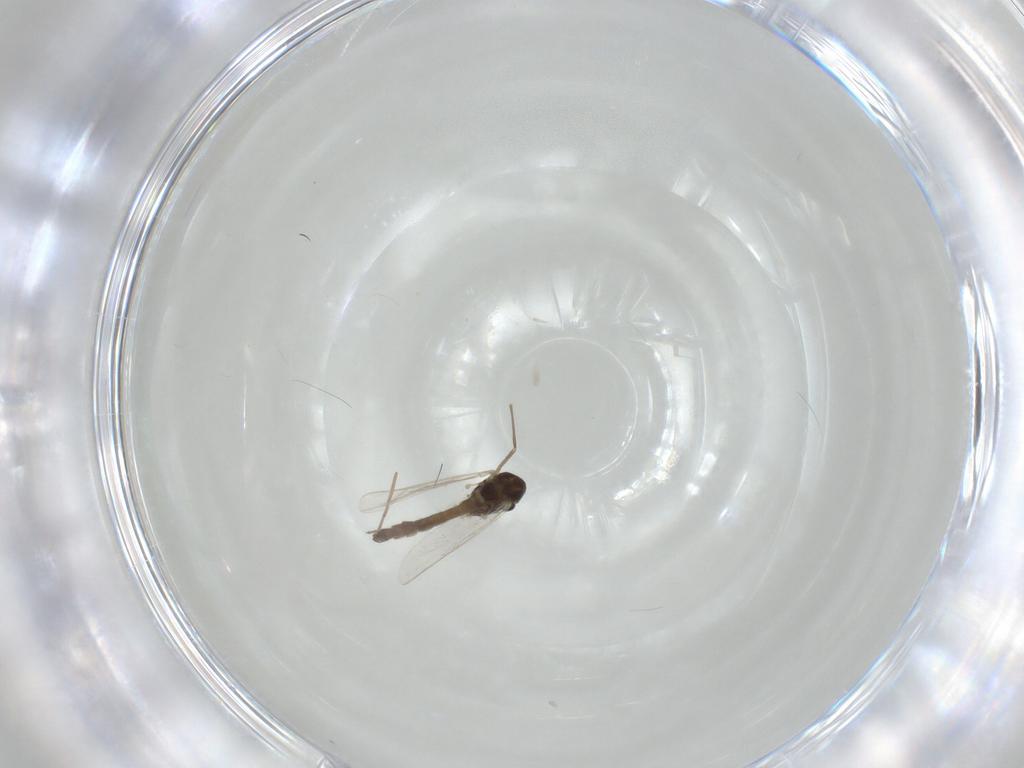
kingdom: Animalia
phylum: Arthropoda
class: Insecta
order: Diptera
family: Chironomidae
